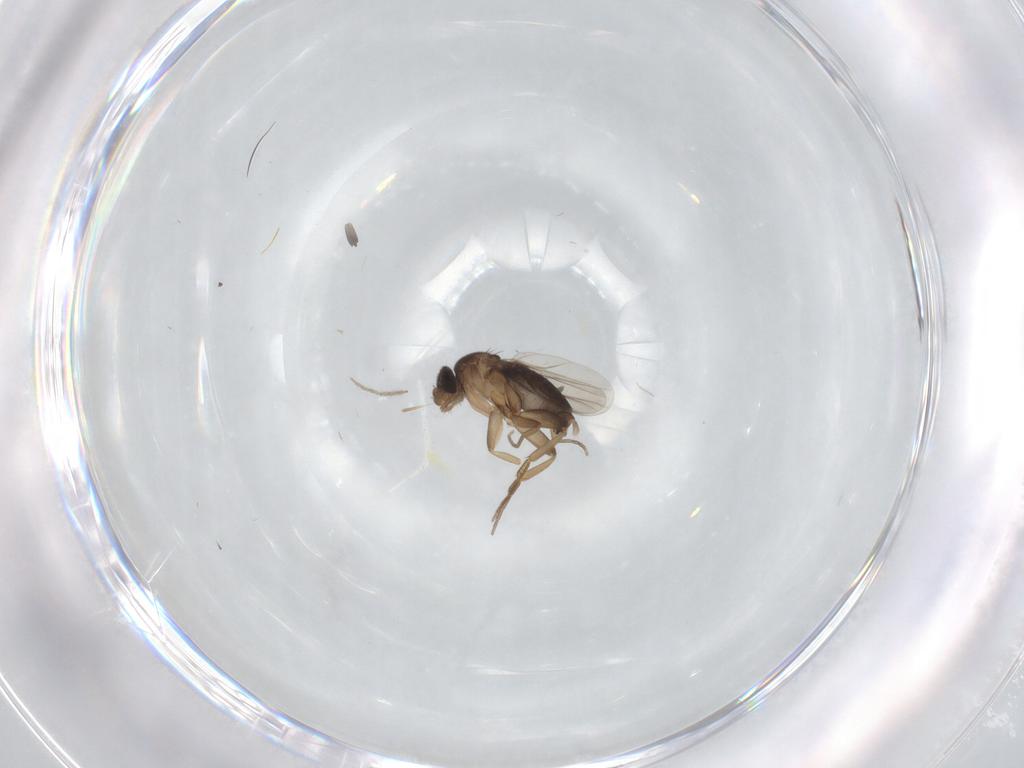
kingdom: Animalia
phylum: Arthropoda
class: Insecta
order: Diptera
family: Phoridae
